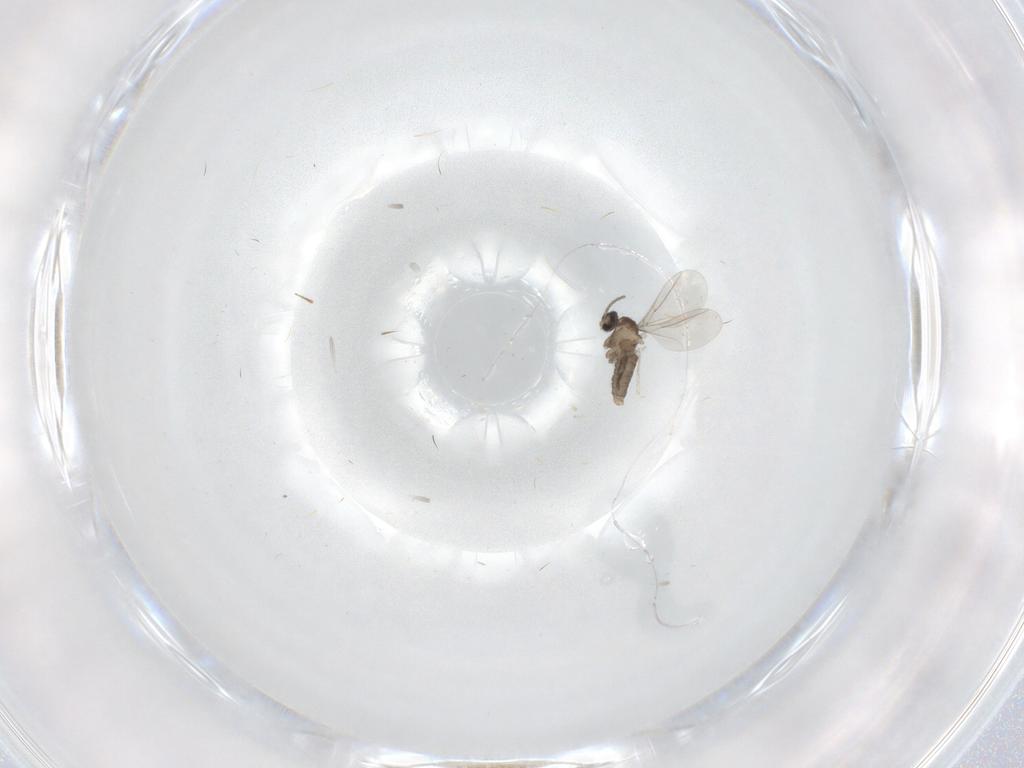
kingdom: Animalia
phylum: Arthropoda
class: Insecta
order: Diptera
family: Cecidomyiidae
